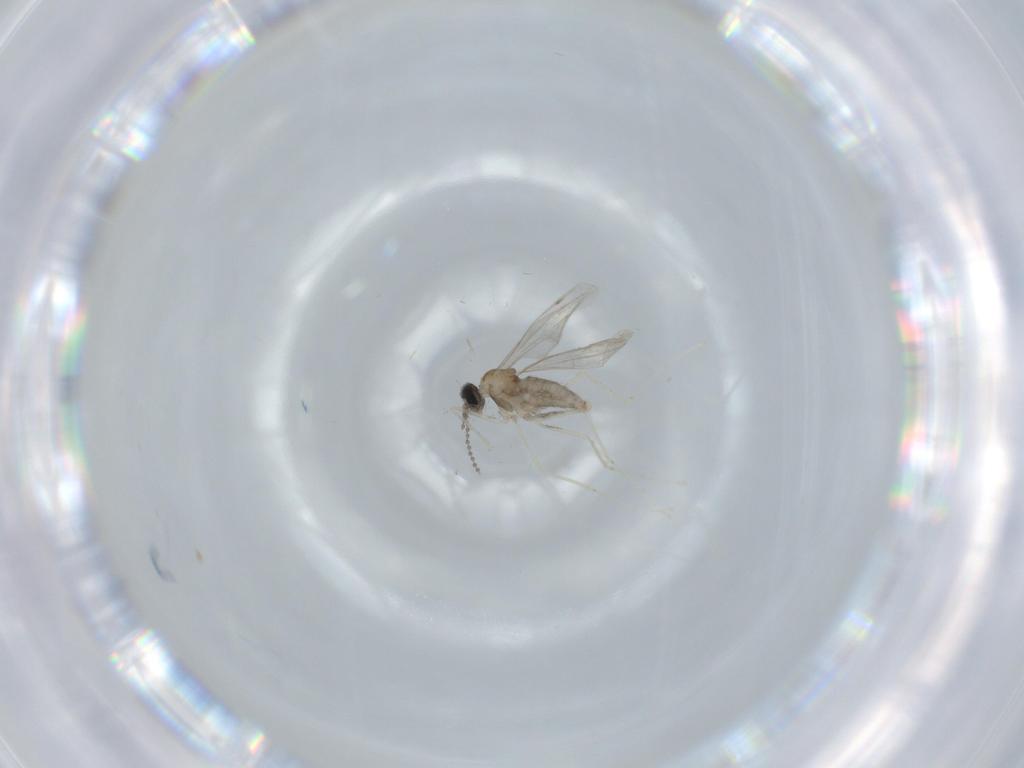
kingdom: Animalia
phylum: Arthropoda
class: Insecta
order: Diptera
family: Cecidomyiidae
